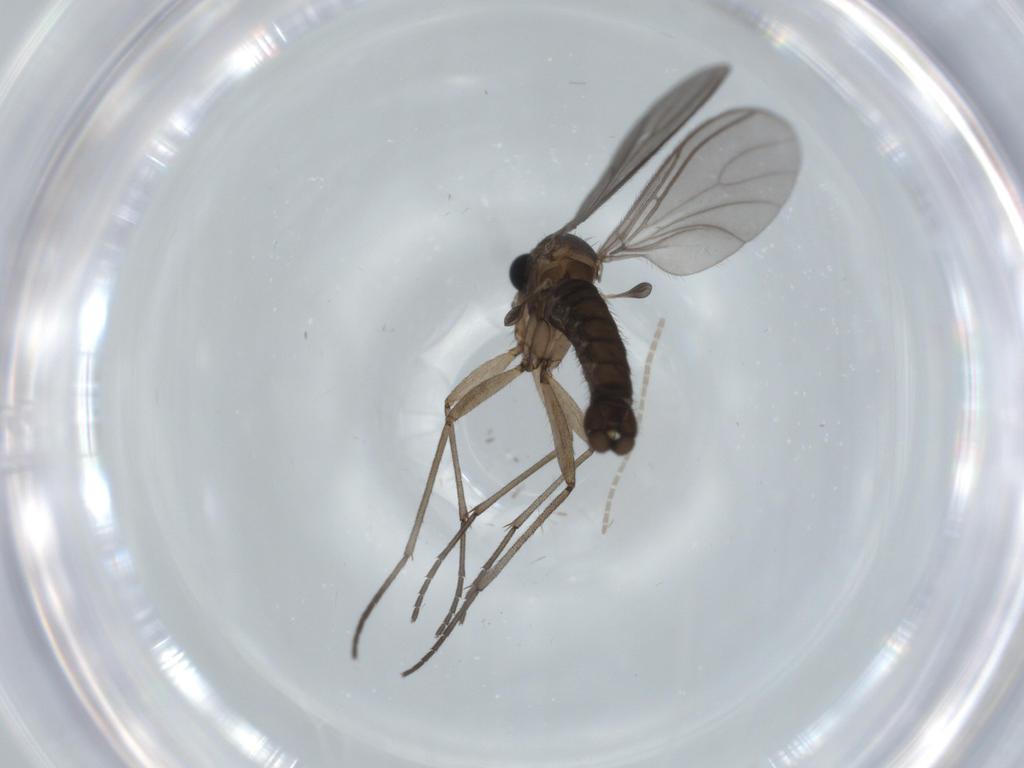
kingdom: Animalia
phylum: Arthropoda
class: Insecta
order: Diptera
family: Sciaridae
